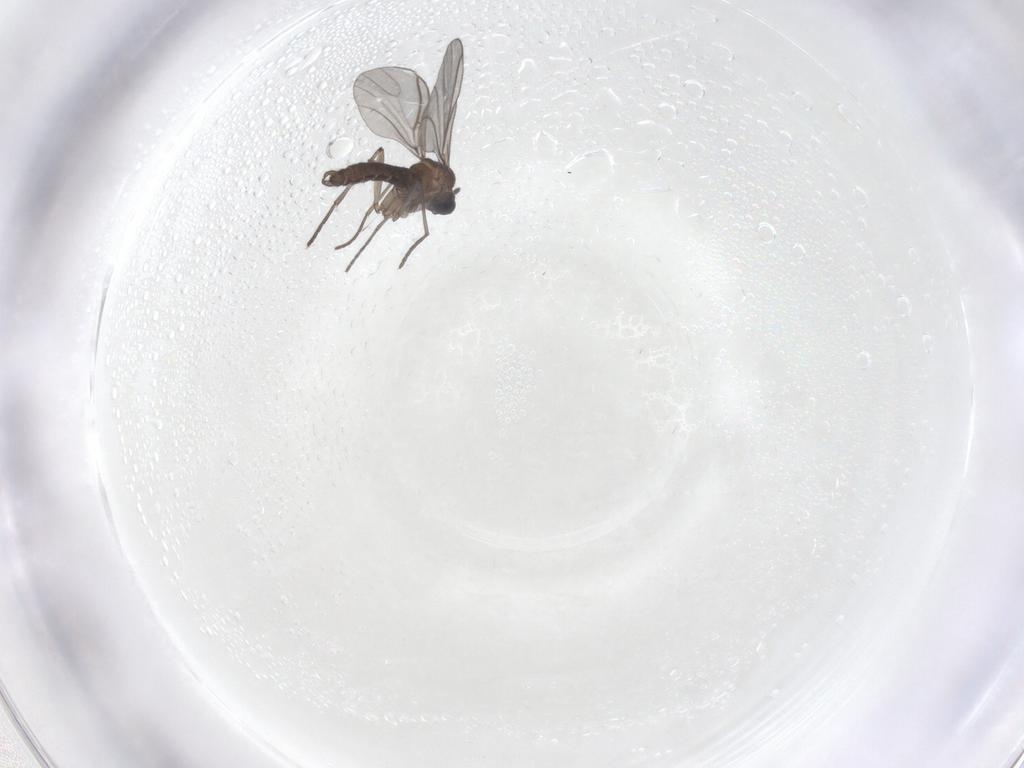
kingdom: Animalia
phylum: Arthropoda
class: Insecta
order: Diptera
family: Sciaridae
